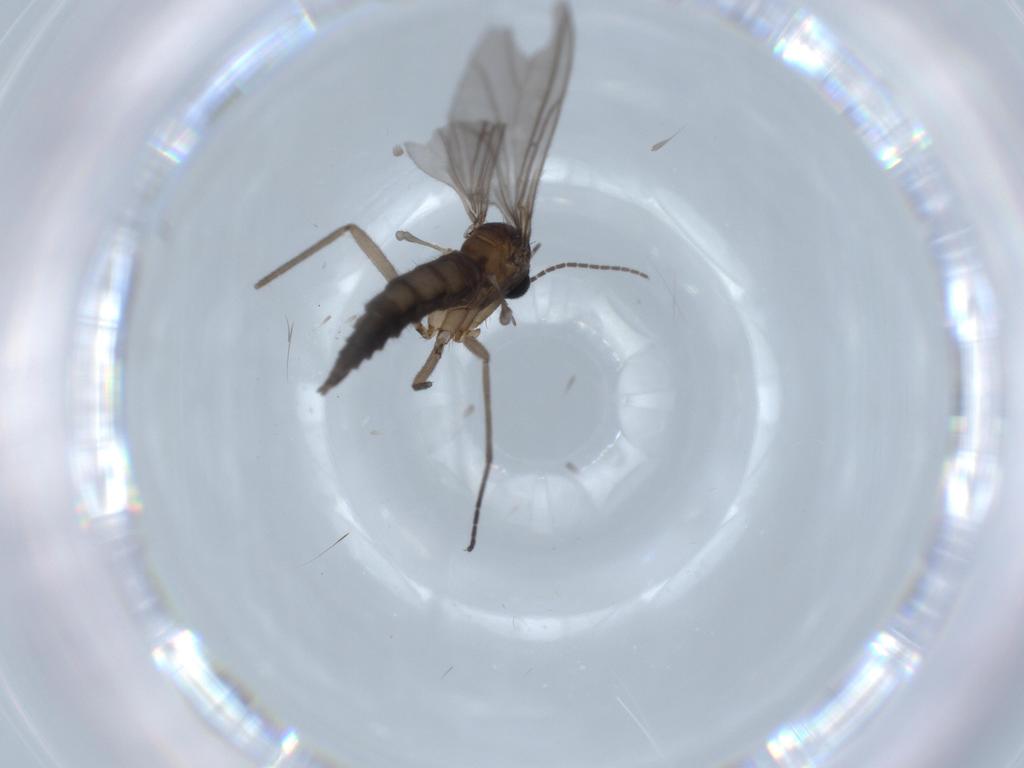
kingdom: Animalia
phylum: Arthropoda
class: Insecta
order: Diptera
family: Sciaridae
